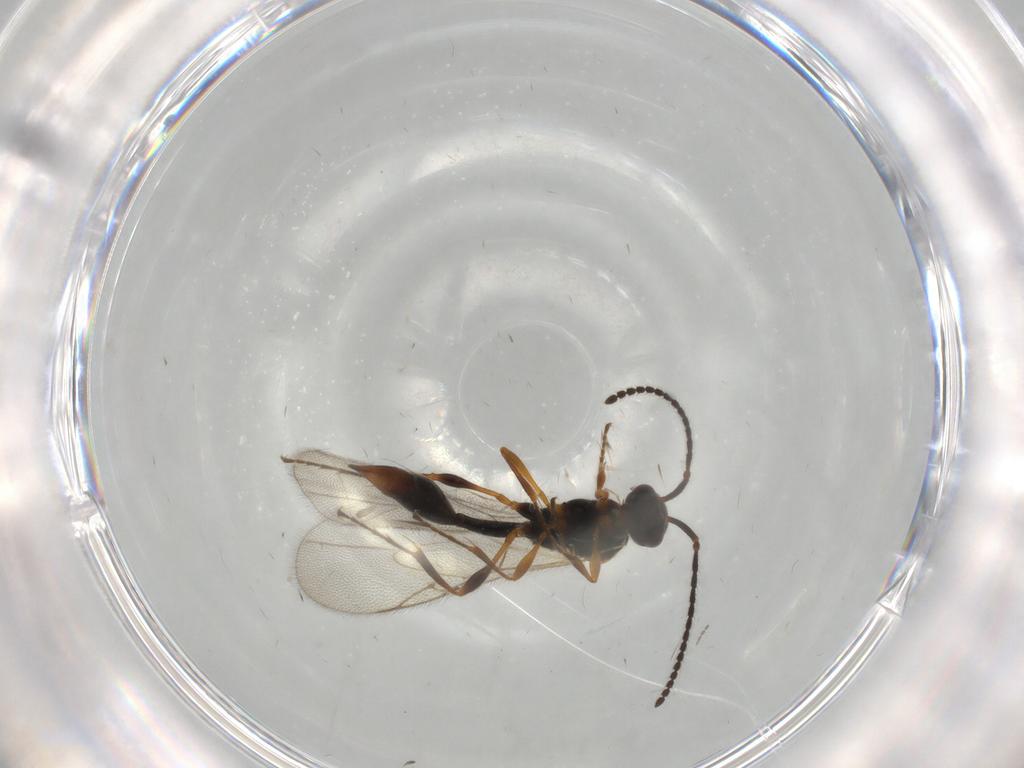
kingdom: Animalia
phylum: Arthropoda
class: Insecta
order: Hymenoptera
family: Diapriidae
